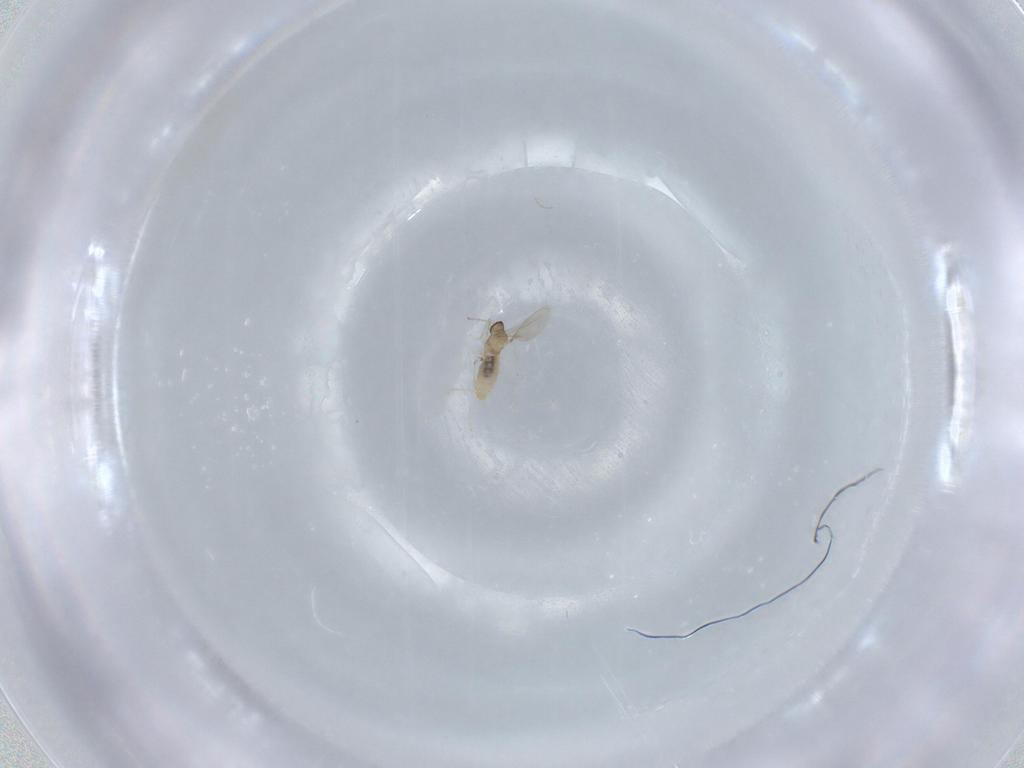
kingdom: Animalia
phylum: Arthropoda
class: Insecta
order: Diptera
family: Cecidomyiidae
